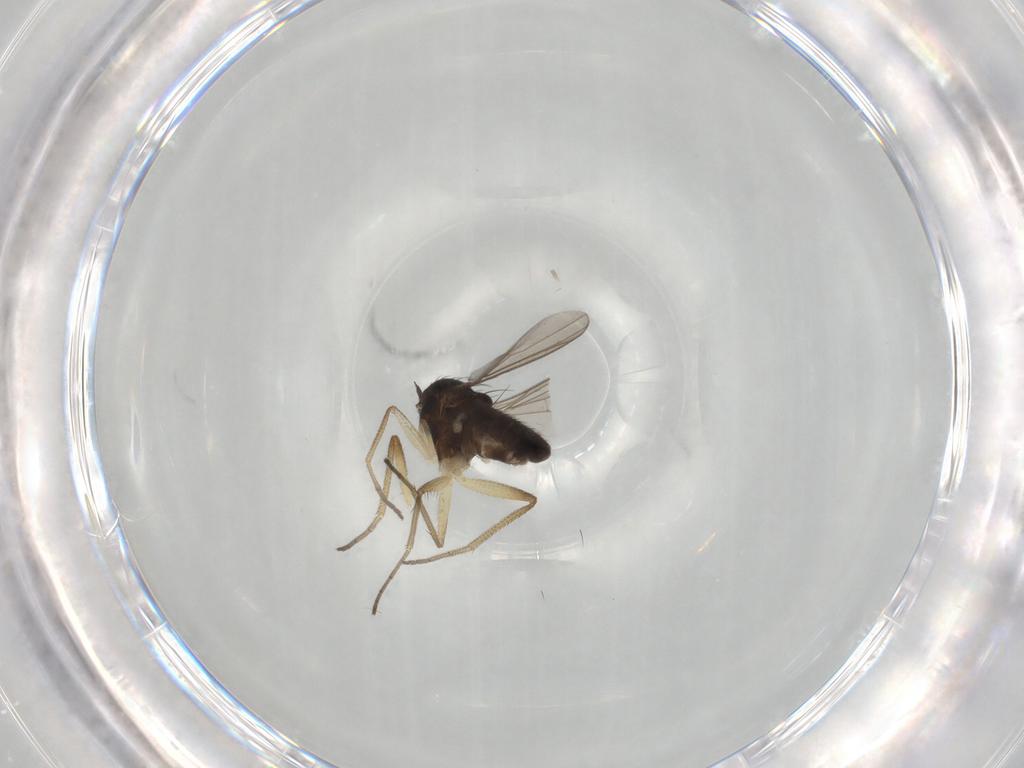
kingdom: Animalia
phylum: Arthropoda
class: Insecta
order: Diptera
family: Dolichopodidae
